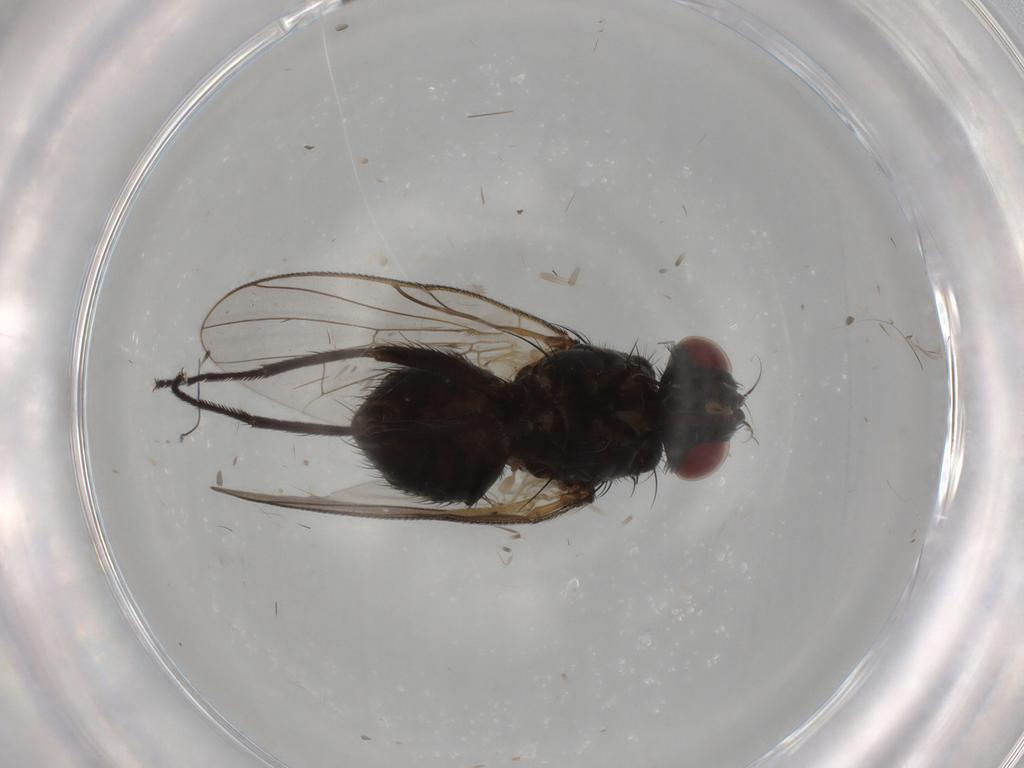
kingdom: Animalia
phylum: Arthropoda
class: Insecta
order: Diptera
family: Muscidae
